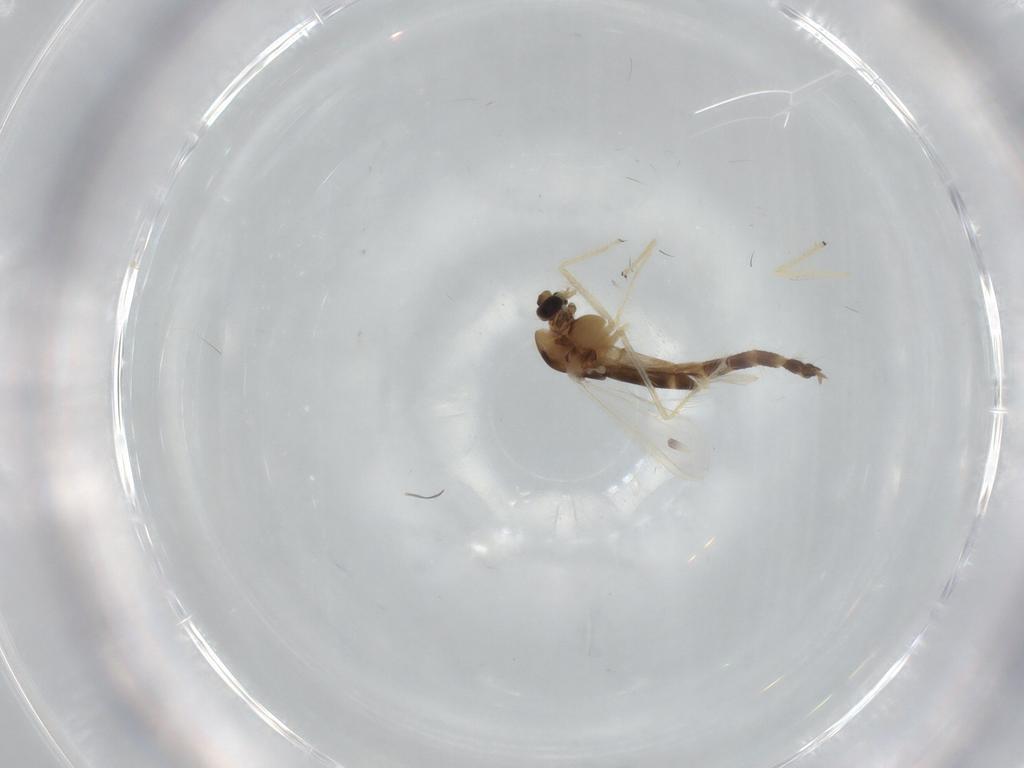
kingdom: Animalia
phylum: Arthropoda
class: Insecta
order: Diptera
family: Chironomidae
